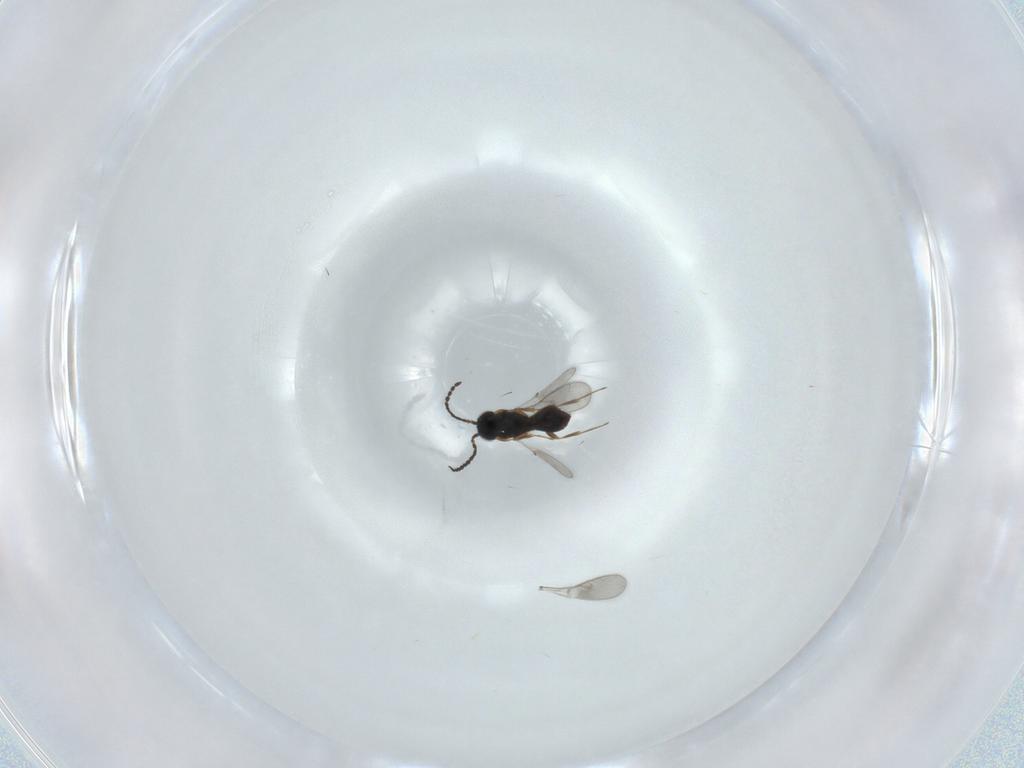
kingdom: Animalia
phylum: Arthropoda
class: Insecta
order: Hymenoptera
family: Scelionidae
